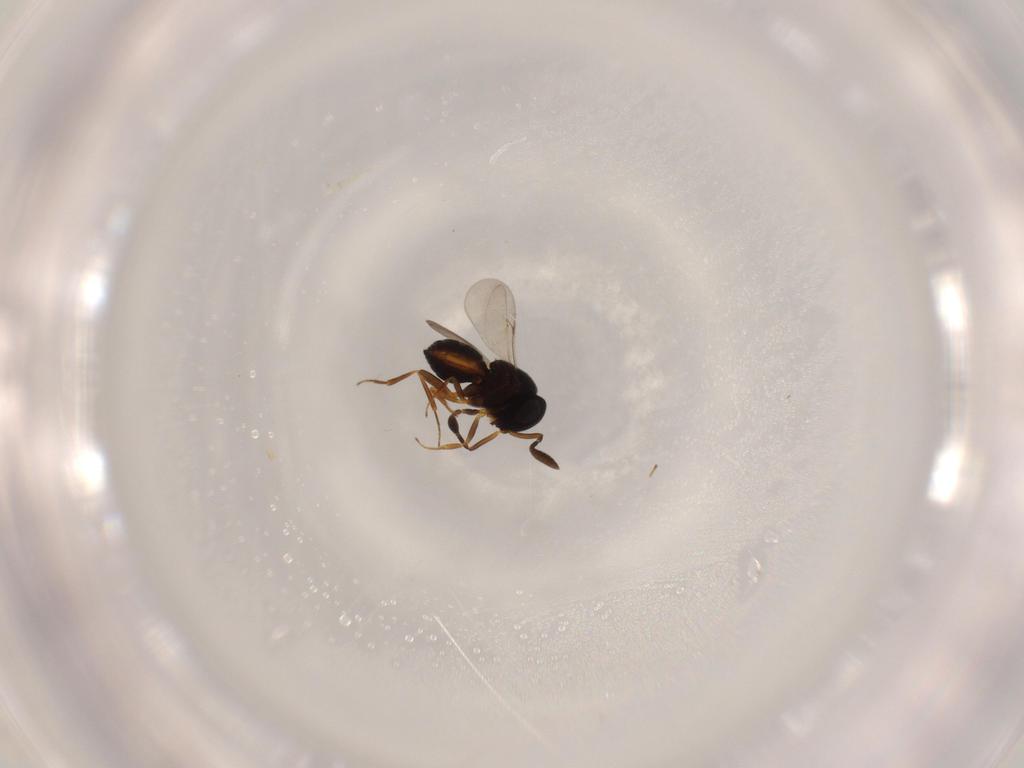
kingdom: Animalia
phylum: Arthropoda
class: Insecta
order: Coleoptera
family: Curculionidae
